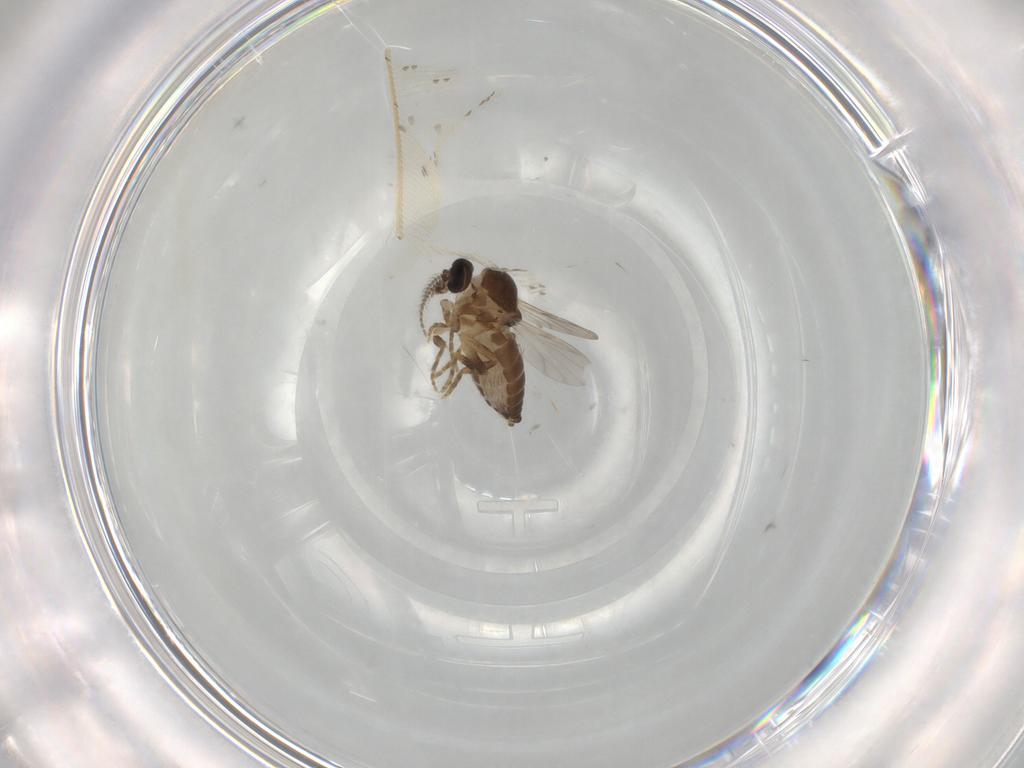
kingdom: Animalia
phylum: Arthropoda
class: Insecta
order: Diptera
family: Ceratopogonidae
